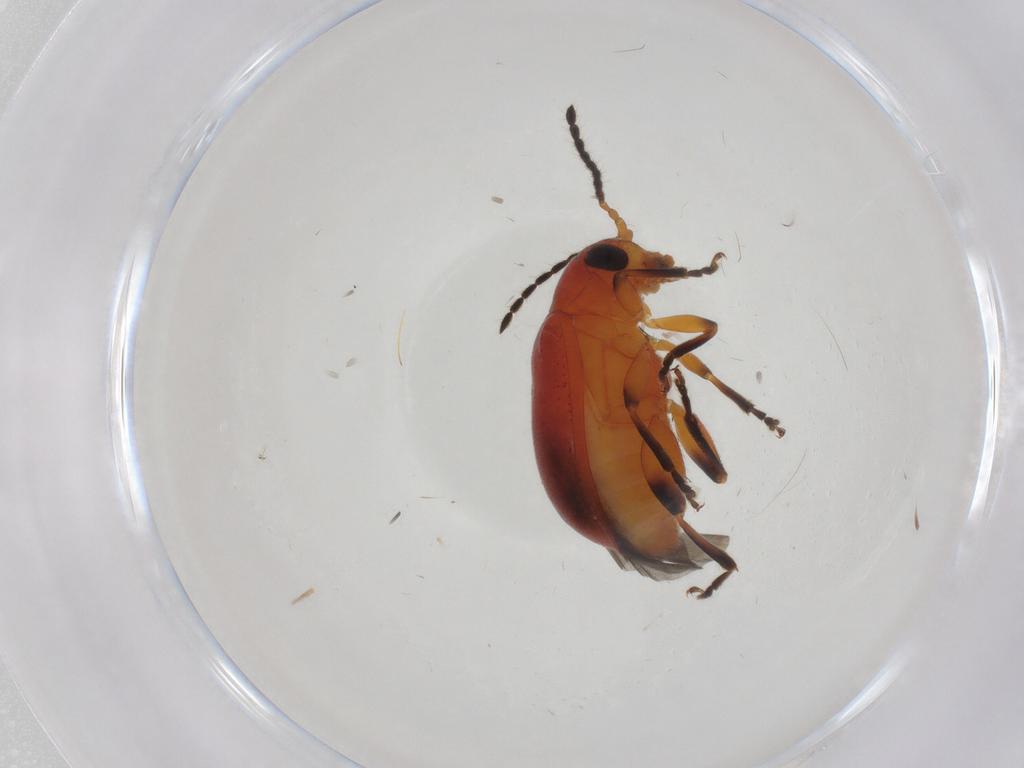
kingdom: Animalia
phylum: Arthropoda
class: Insecta
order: Coleoptera
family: Chrysomelidae
